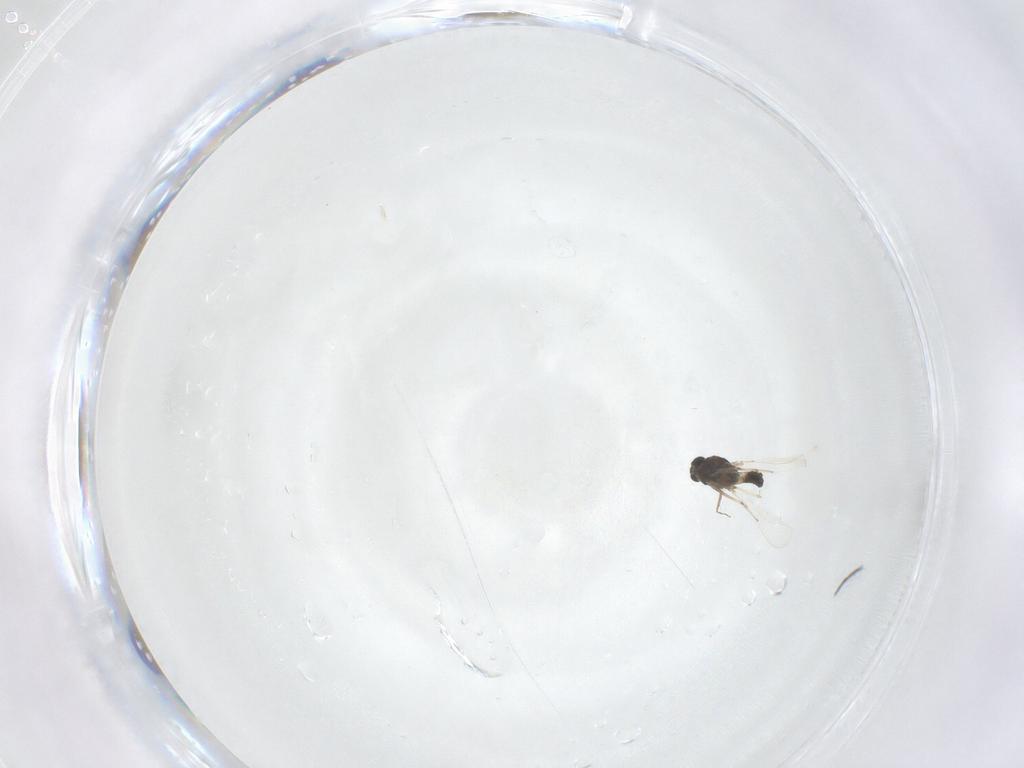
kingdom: Animalia
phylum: Arthropoda
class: Insecta
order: Diptera
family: Chironomidae
